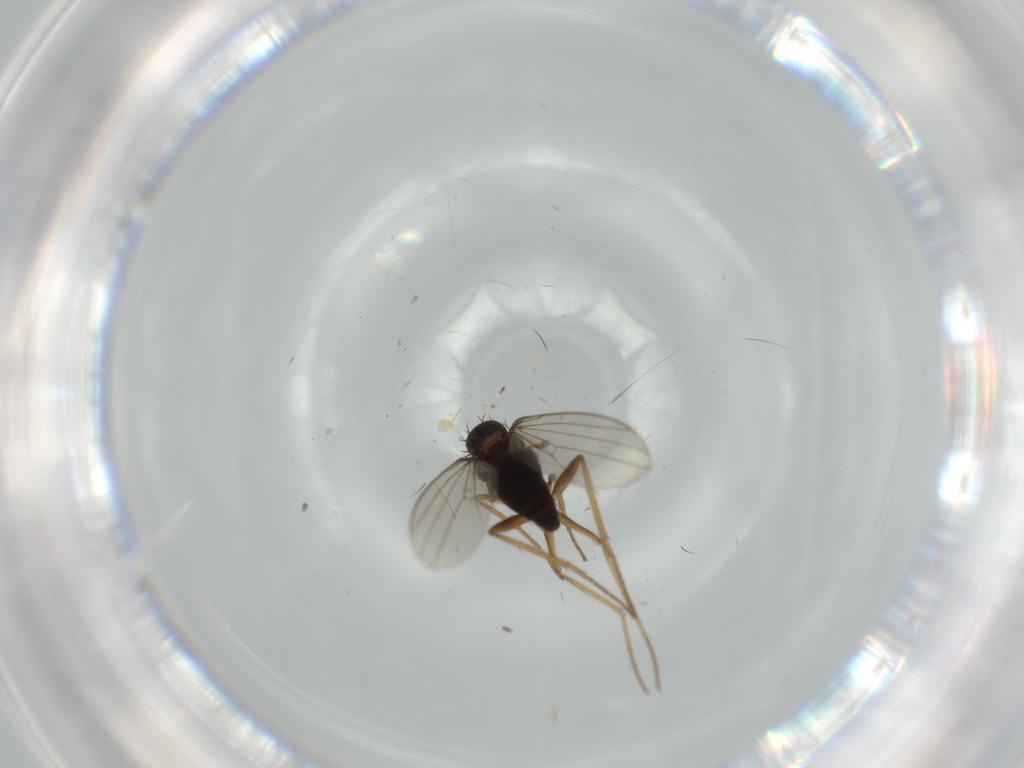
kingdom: Animalia
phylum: Arthropoda
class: Insecta
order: Diptera
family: Dolichopodidae
